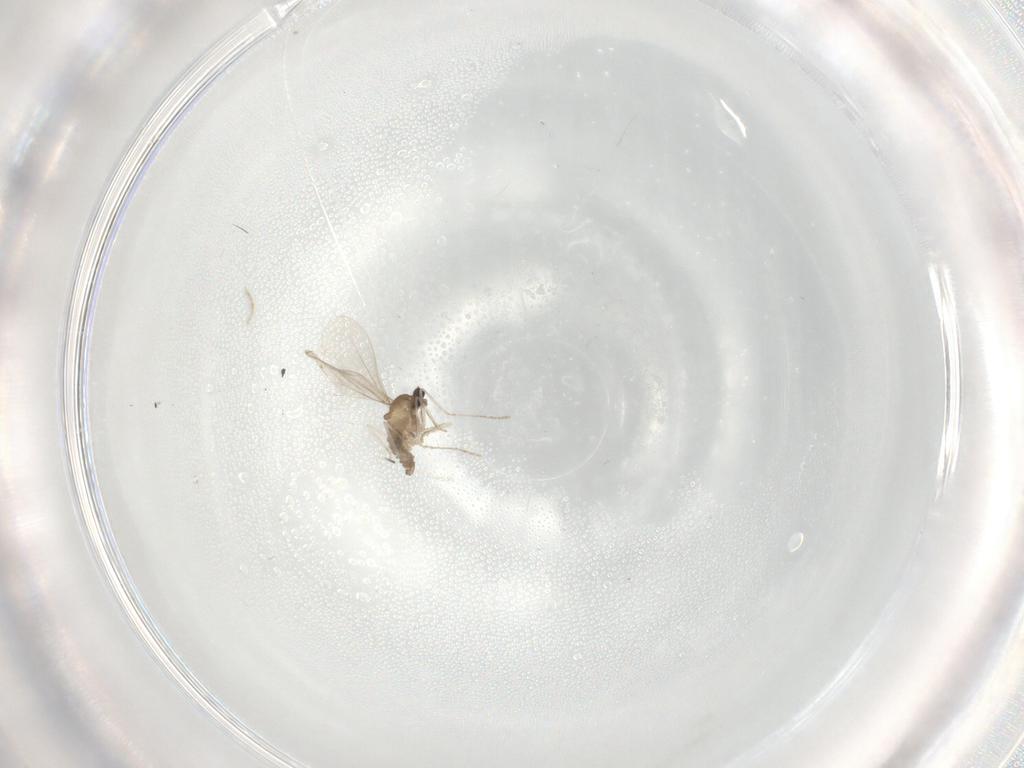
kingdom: Animalia
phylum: Arthropoda
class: Insecta
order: Diptera
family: Cecidomyiidae
